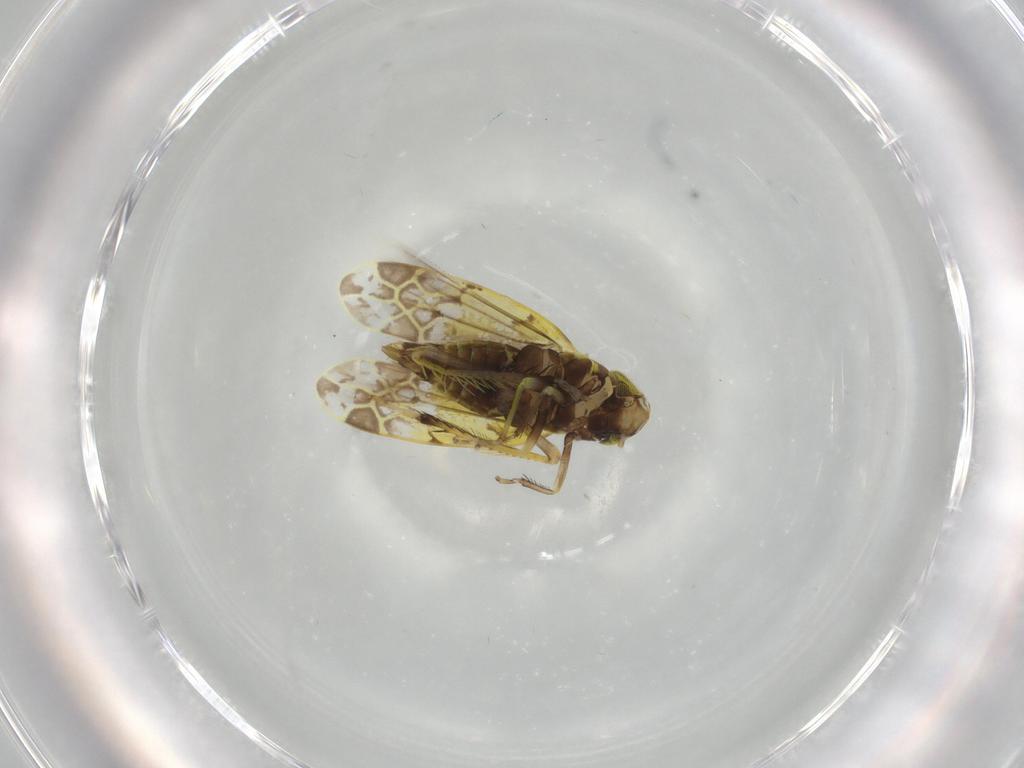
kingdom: Animalia
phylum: Arthropoda
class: Insecta
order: Hemiptera
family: Cicadellidae
